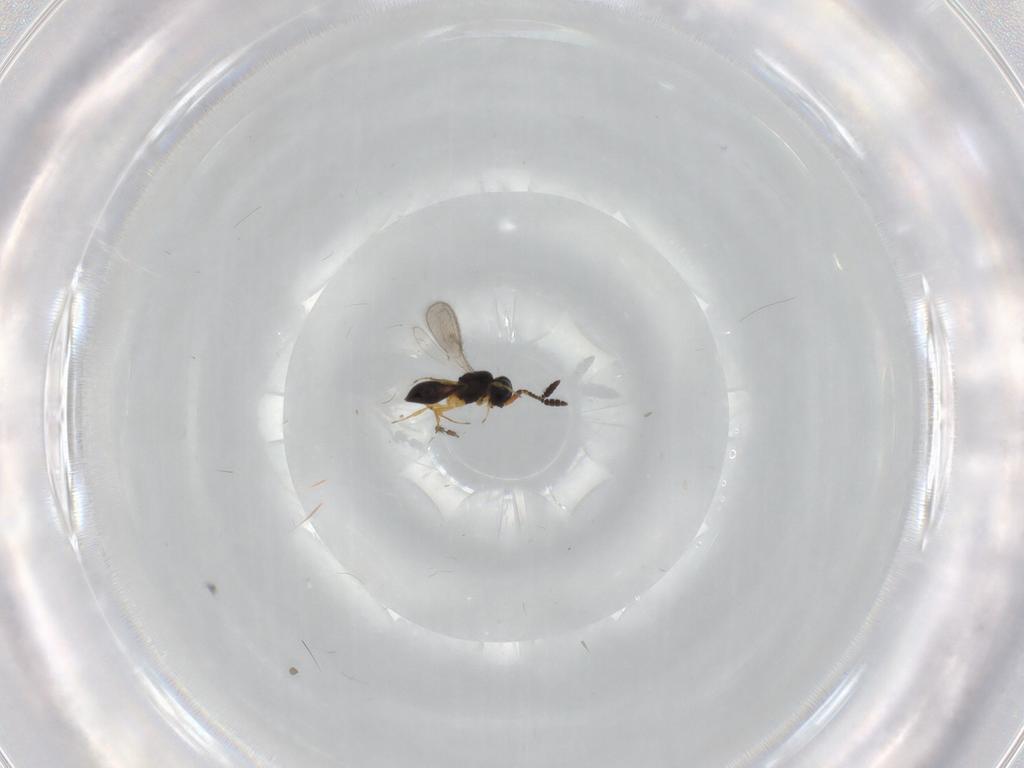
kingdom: Animalia
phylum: Arthropoda
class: Insecta
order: Hymenoptera
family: Scelionidae
